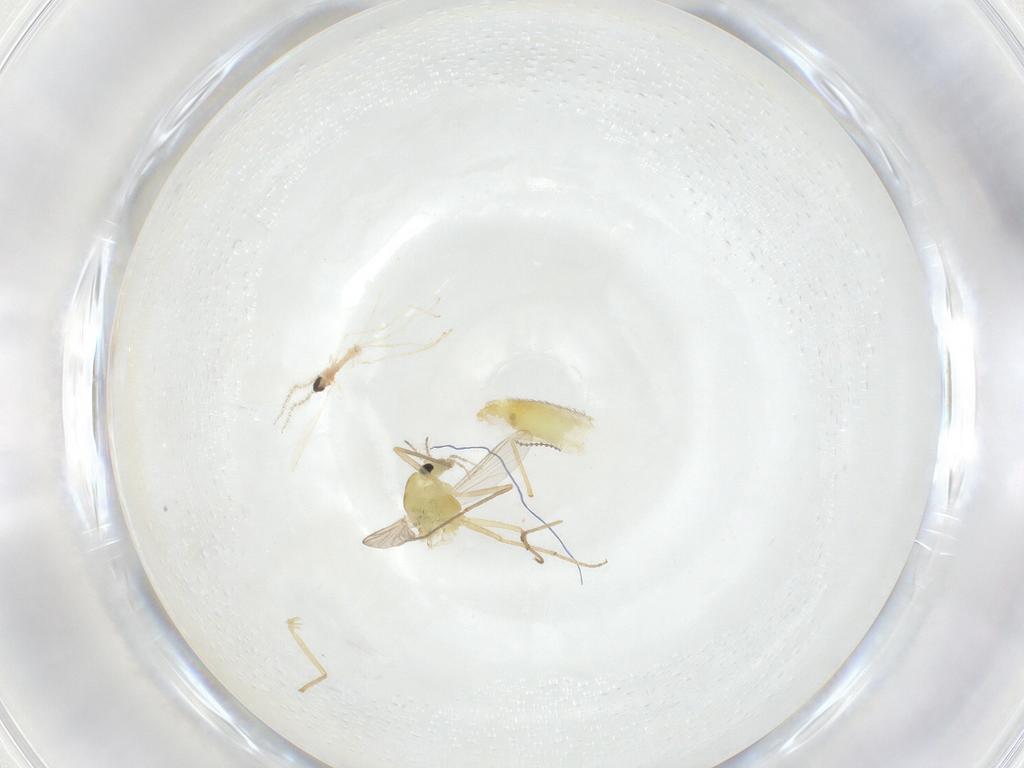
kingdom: Animalia
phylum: Arthropoda
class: Insecta
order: Diptera
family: Chironomidae
